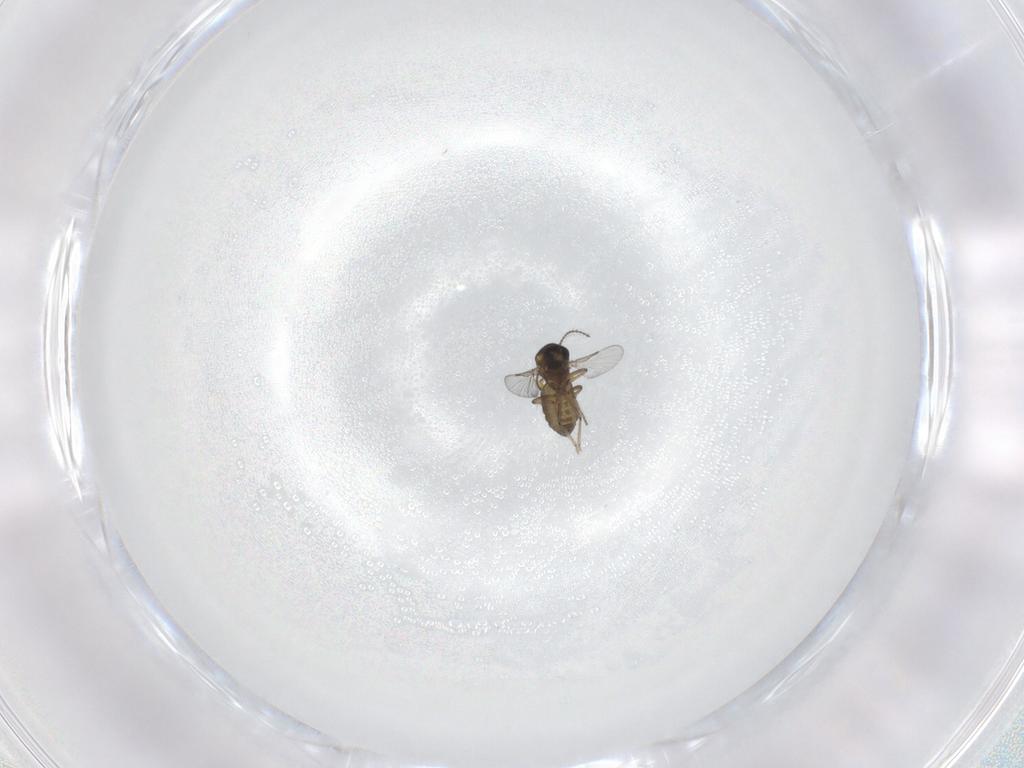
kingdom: Animalia
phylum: Arthropoda
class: Insecta
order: Diptera
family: Ceratopogonidae
